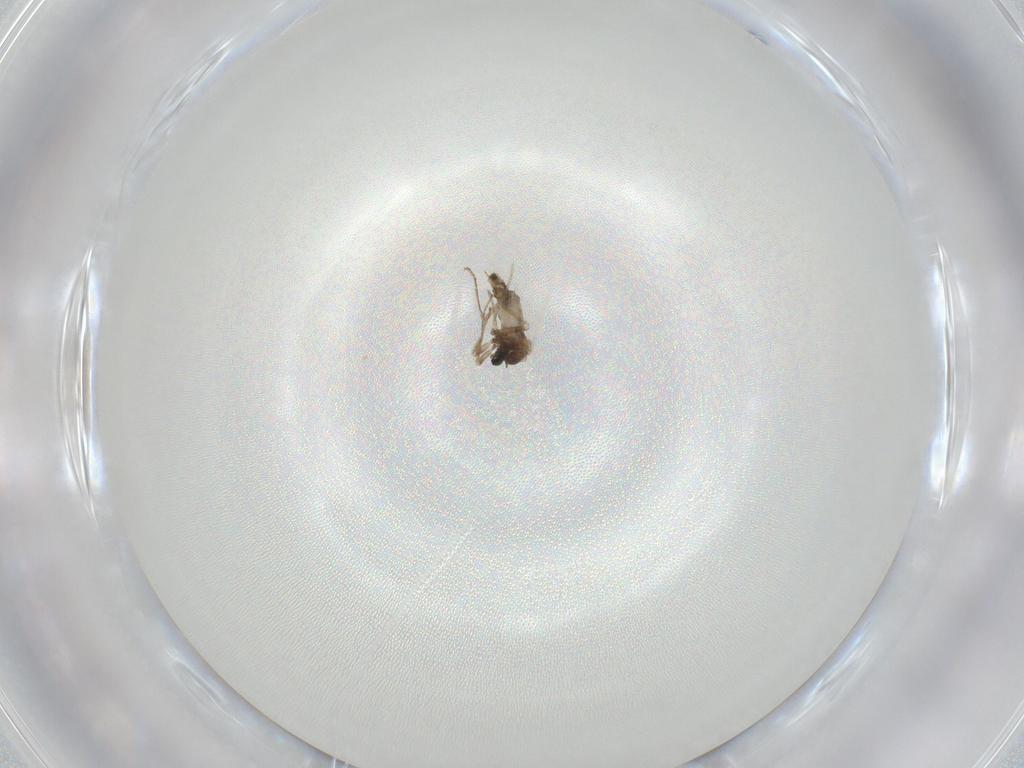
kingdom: Animalia
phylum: Arthropoda
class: Insecta
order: Diptera
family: Cecidomyiidae
